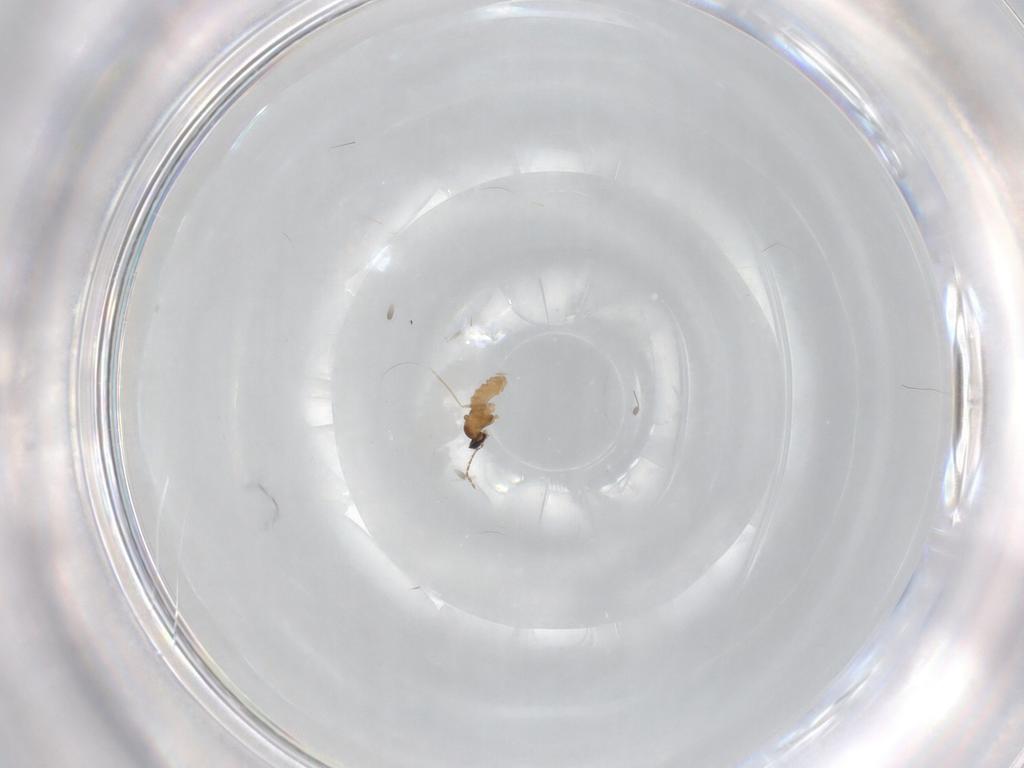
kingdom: Animalia
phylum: Arthropoda
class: Insecta
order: Diptera
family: Cecidomyiidae
